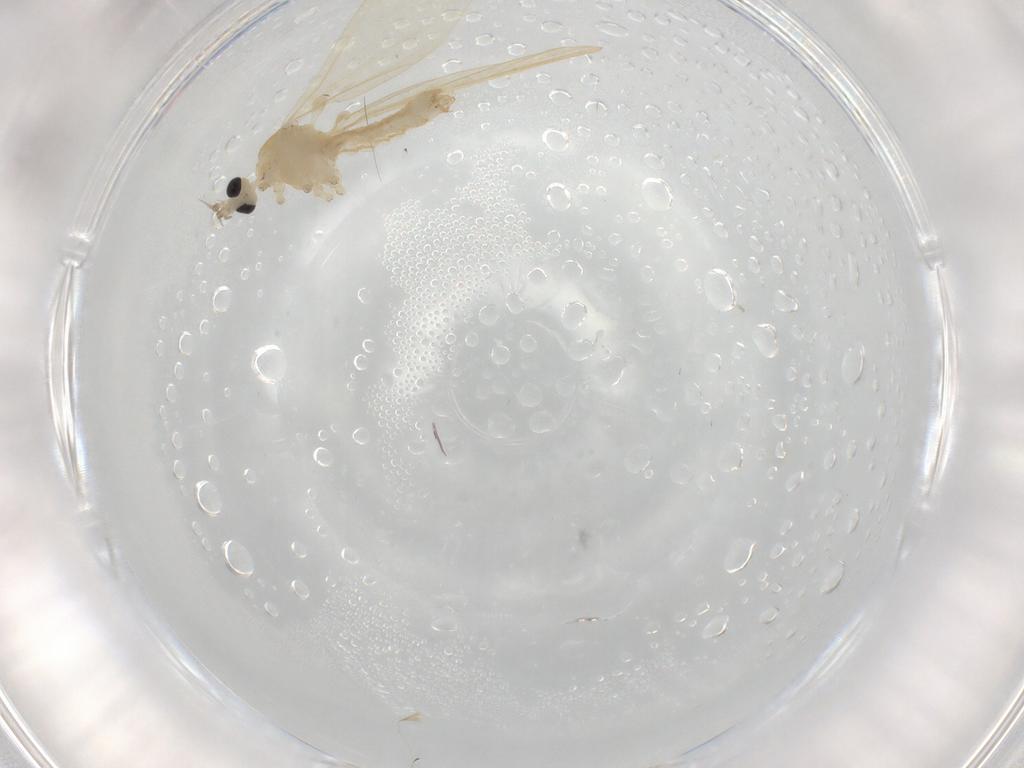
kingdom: Animalia
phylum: Arthropoda
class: Insecta
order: Diptera
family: Limoniidae
